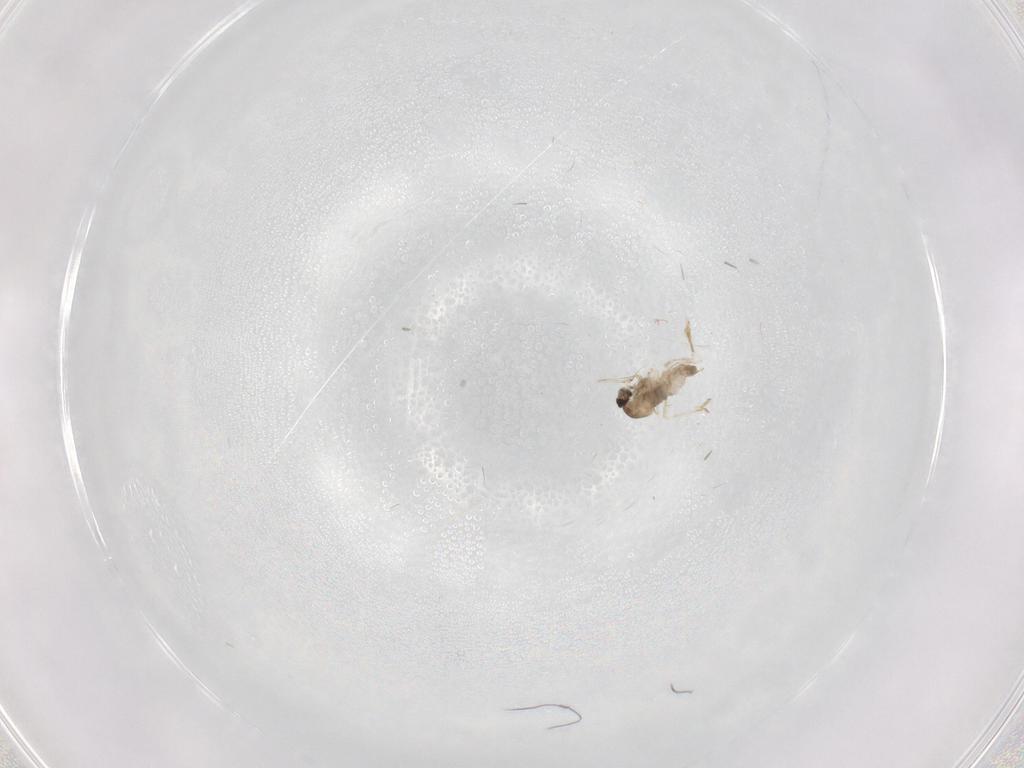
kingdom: Animalia
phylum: Arthropoda
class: Insecta
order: Diptera
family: Cecidomyiidae
